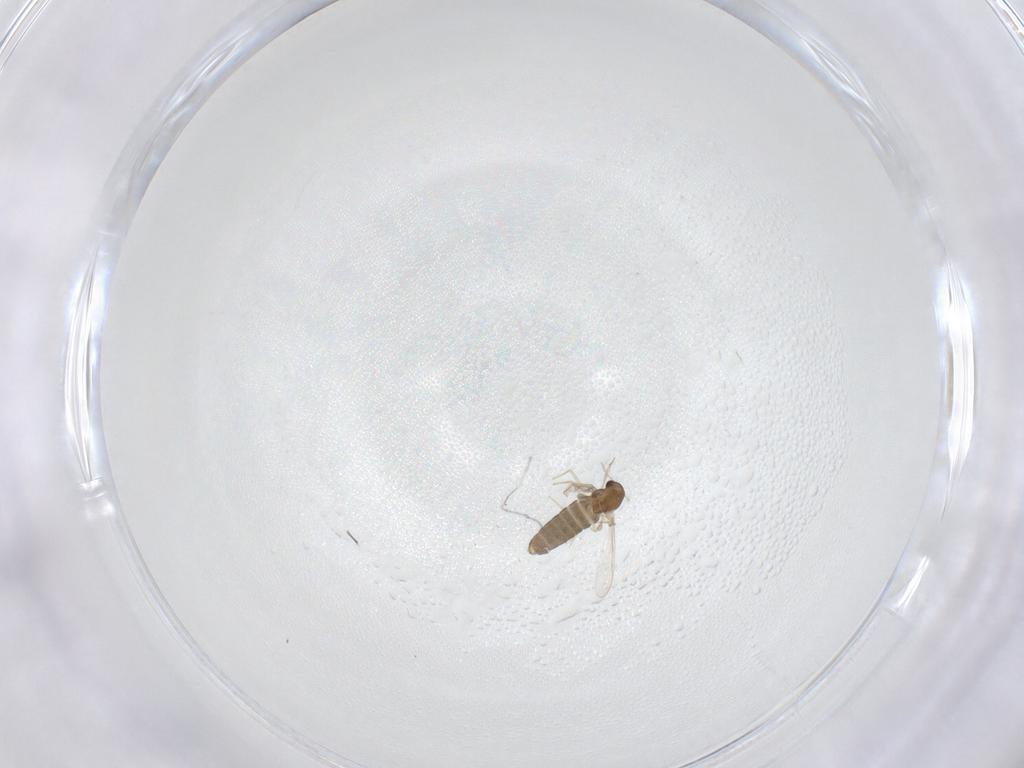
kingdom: Animalia
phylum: Arthropoda
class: Insecta
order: Diptera
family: Chironomidae
